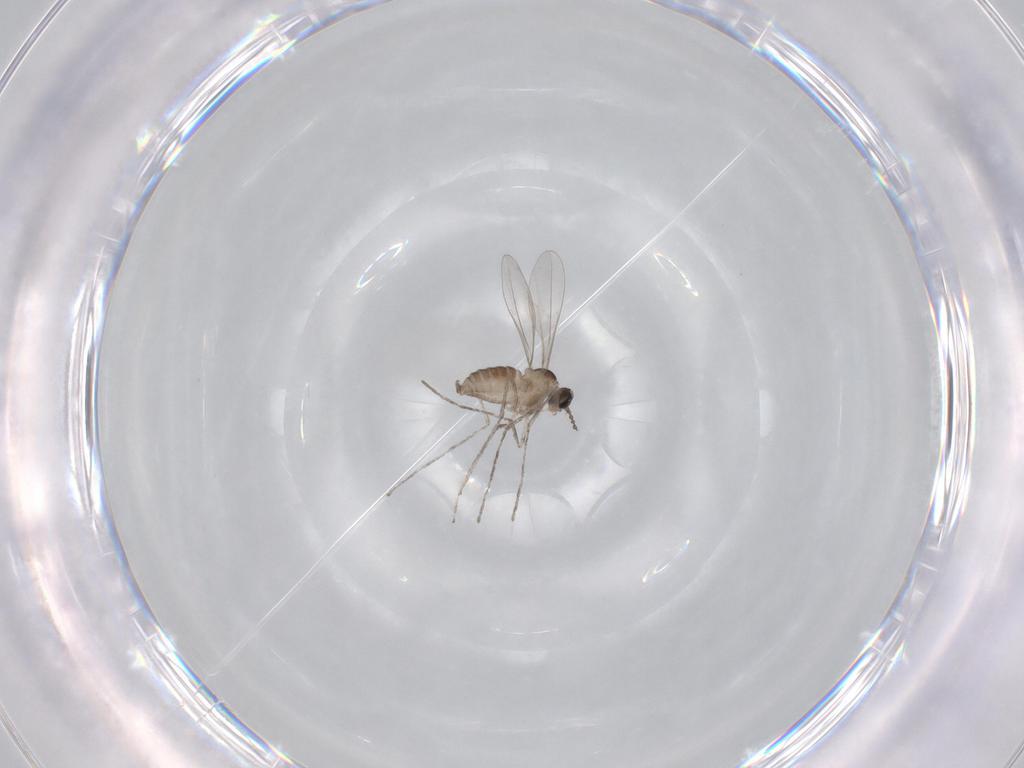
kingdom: Animalia
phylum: Arthropoda
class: Insecta
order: Diptera
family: Cecidomyiidae
